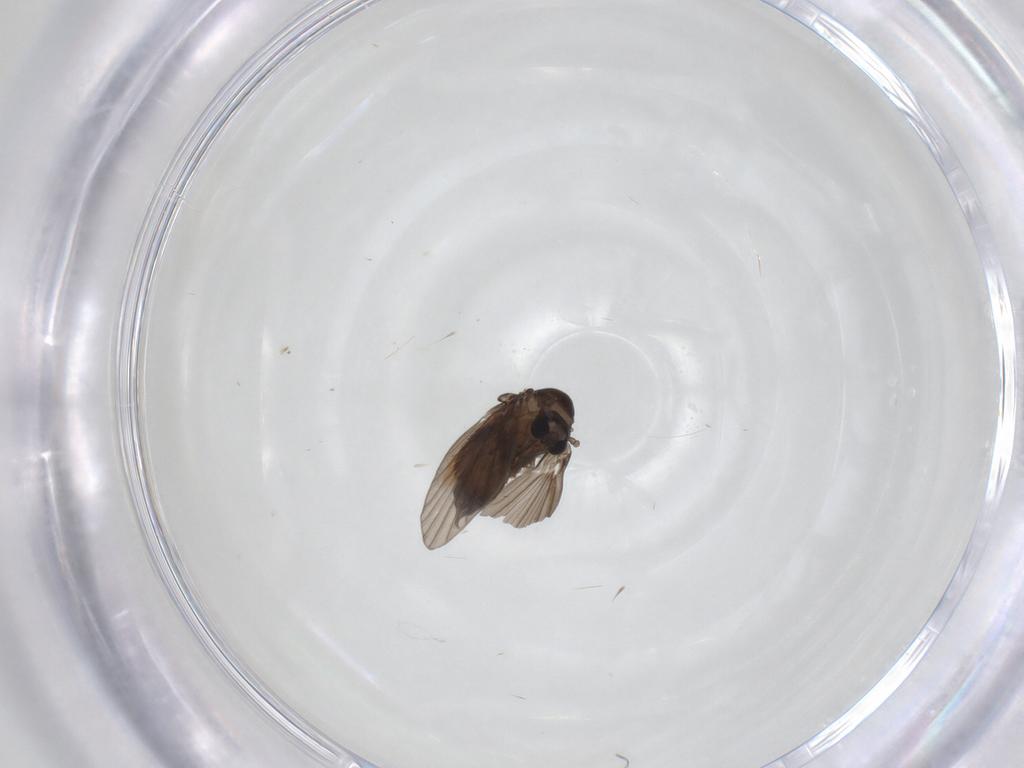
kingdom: Animalia
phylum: Arthropoda
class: Insecta
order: Diptera
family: Psychodidae
